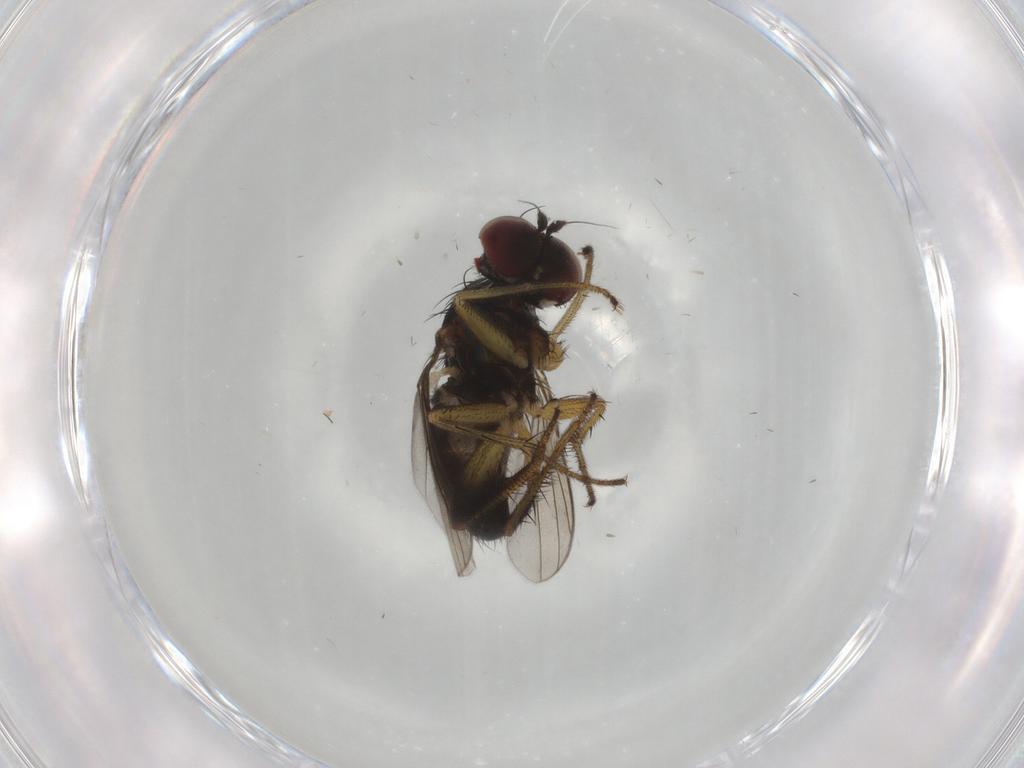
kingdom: Animalia
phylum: Arthropoda
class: Insecta
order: Diptera
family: Dolichopodidae
